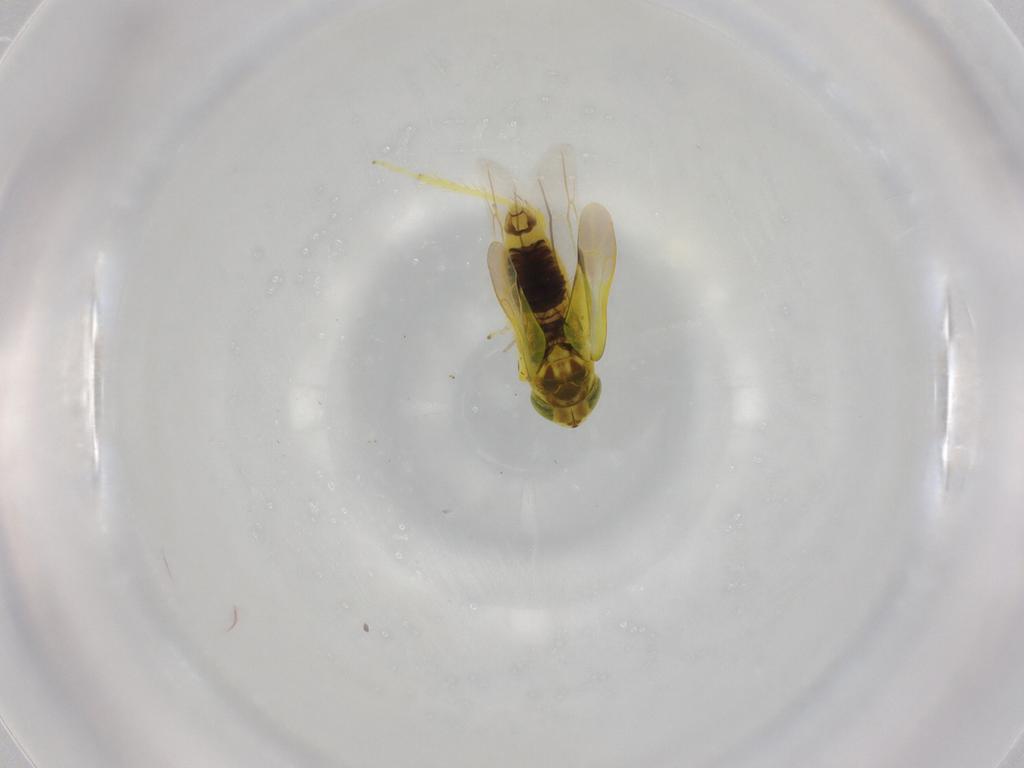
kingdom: Animalia
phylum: Arthropoda
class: Insecta
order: Hemiptera
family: Cicadellidae
